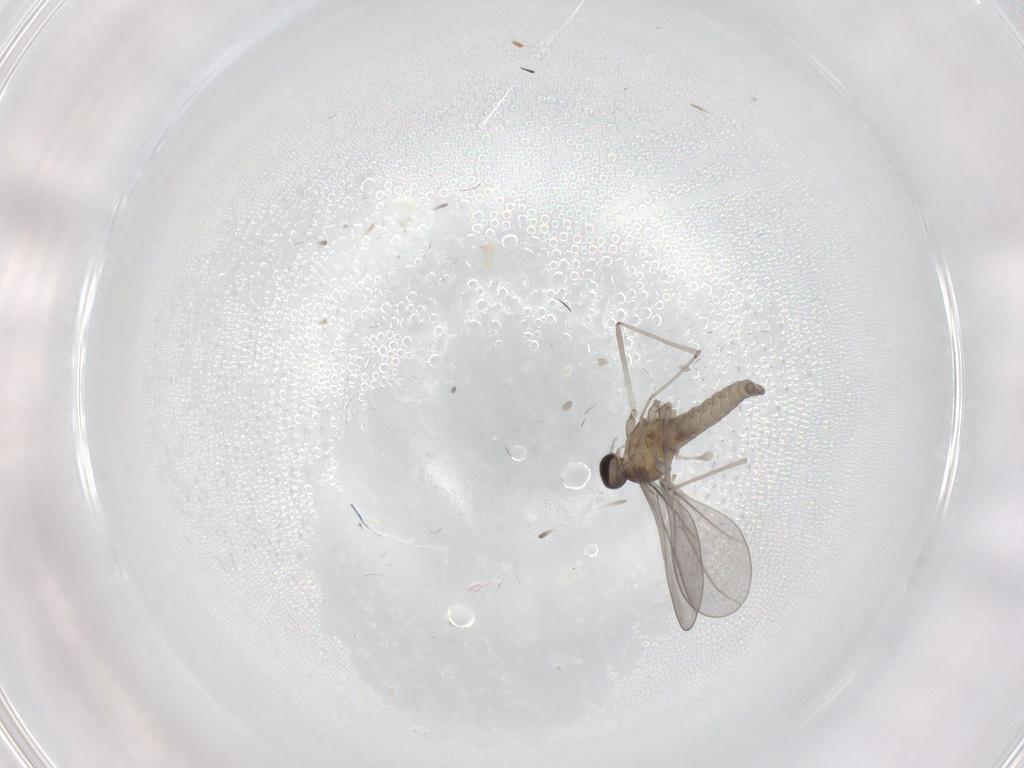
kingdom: Animalia
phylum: Arthropoda
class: Insecta
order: Diptera
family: Cecidomyiidae
